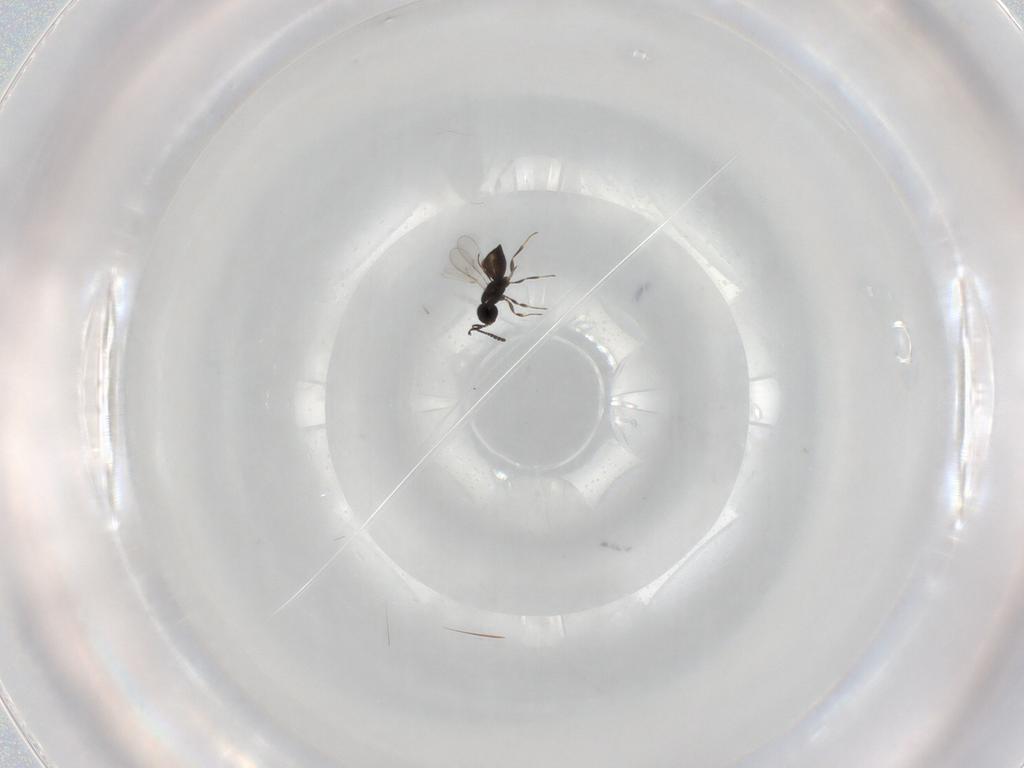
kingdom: Animalia
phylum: Arthropoda
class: Insecta
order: Hymenoptera
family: Scelionidae
